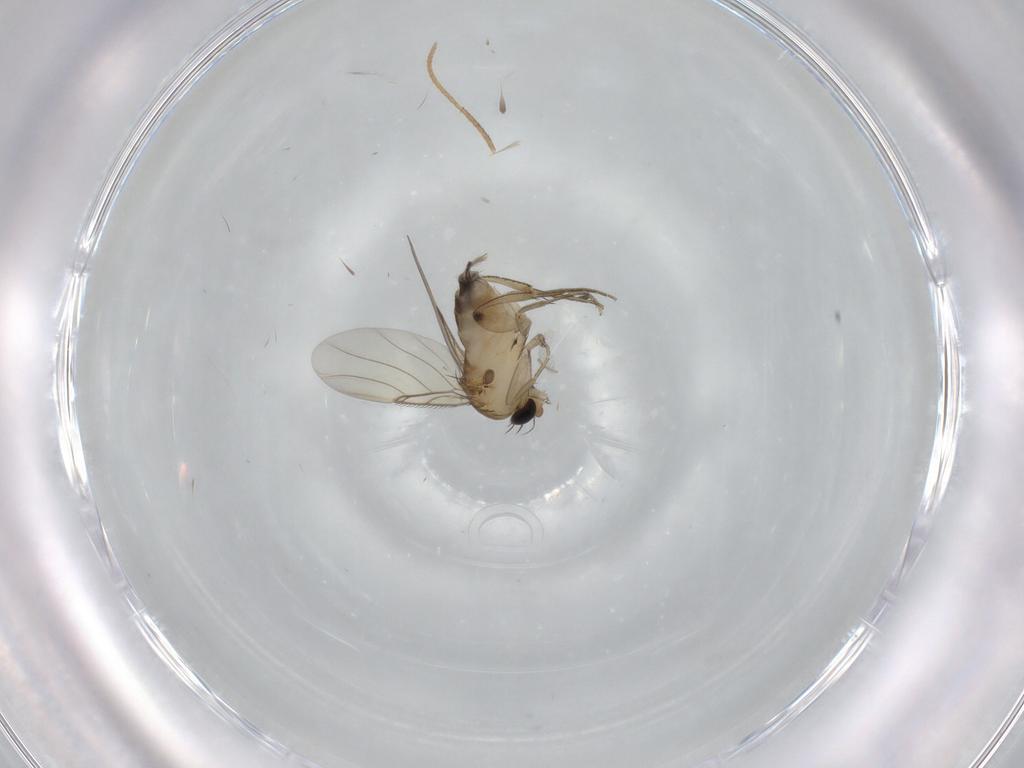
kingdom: Animalia
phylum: Arthropoda
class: Insecta
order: Diptera
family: Phoridae
